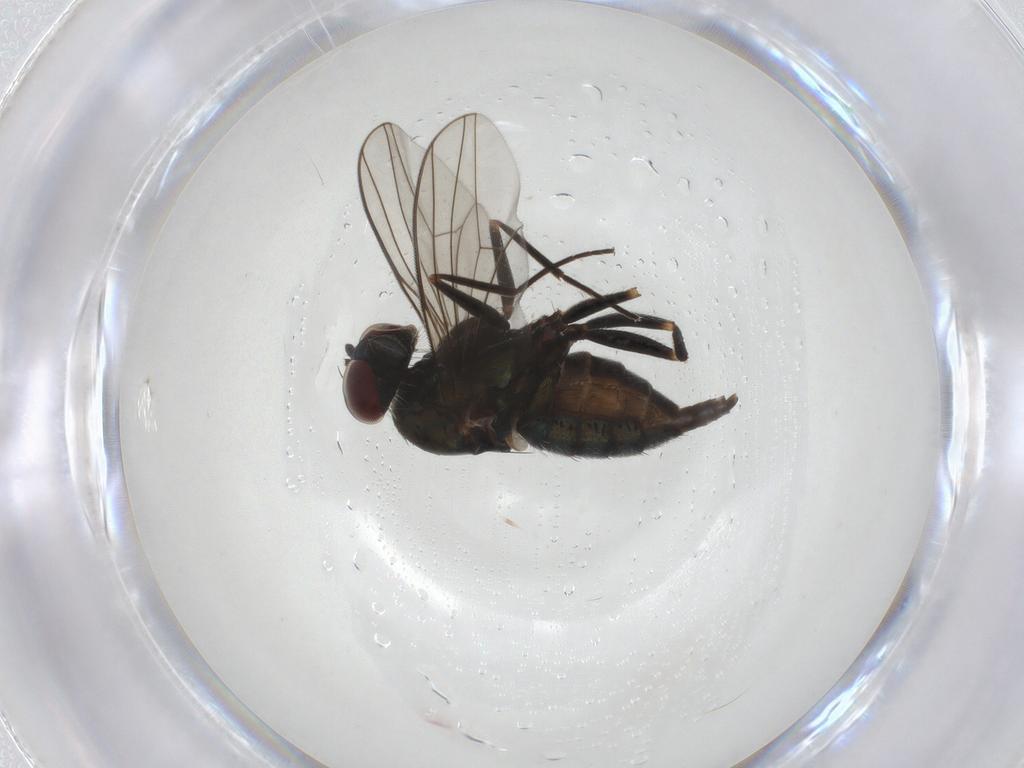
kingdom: Animalia
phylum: Arthropoda
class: Insecta
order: Diptera
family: Dolichopodidae
